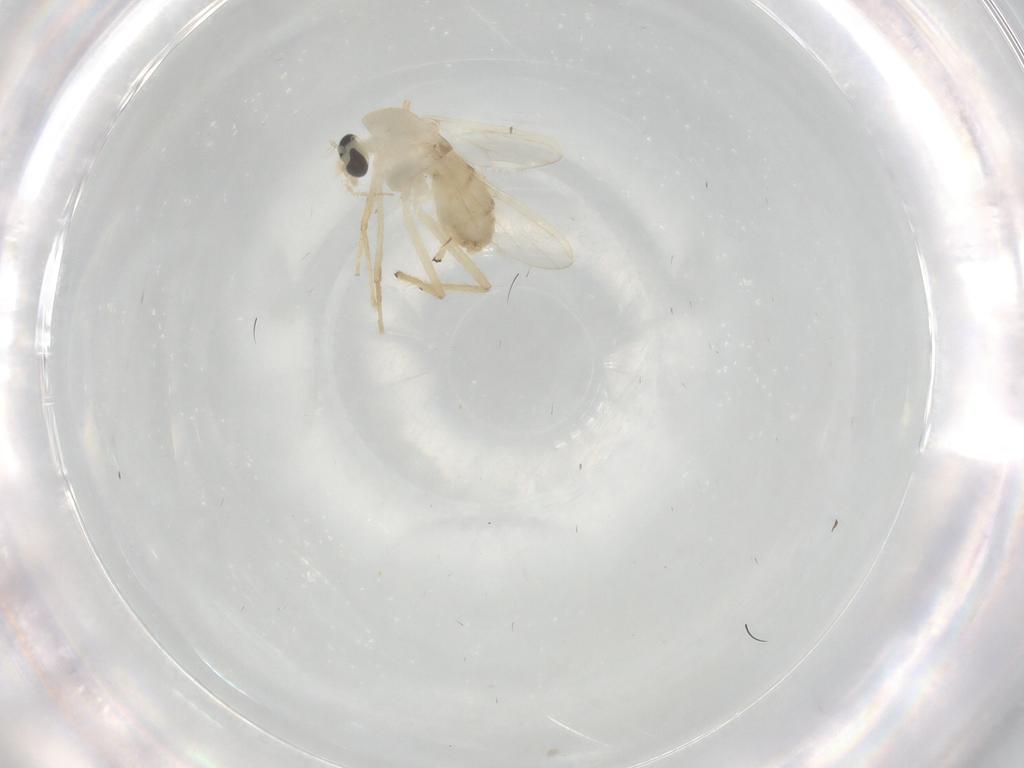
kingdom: Animalia
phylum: Arthropoda
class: Insecta
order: Diptera
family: Chironomidae
